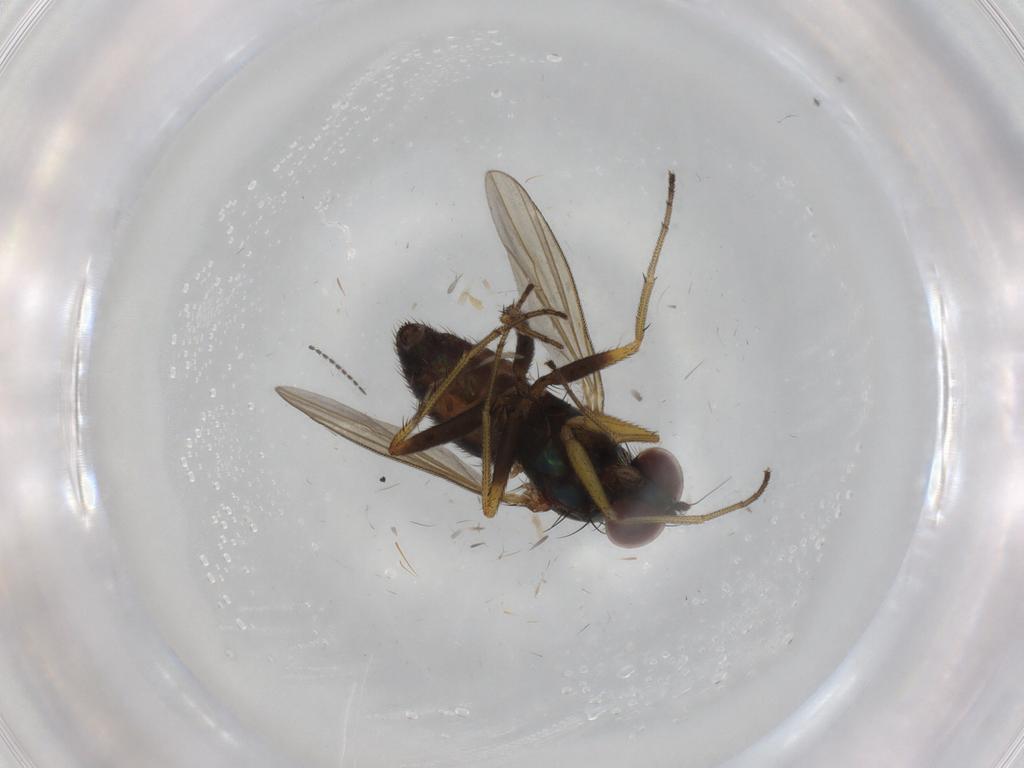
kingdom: Animalia
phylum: Arthropoda
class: Insecta
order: Diptera
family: Dolichopodidae
